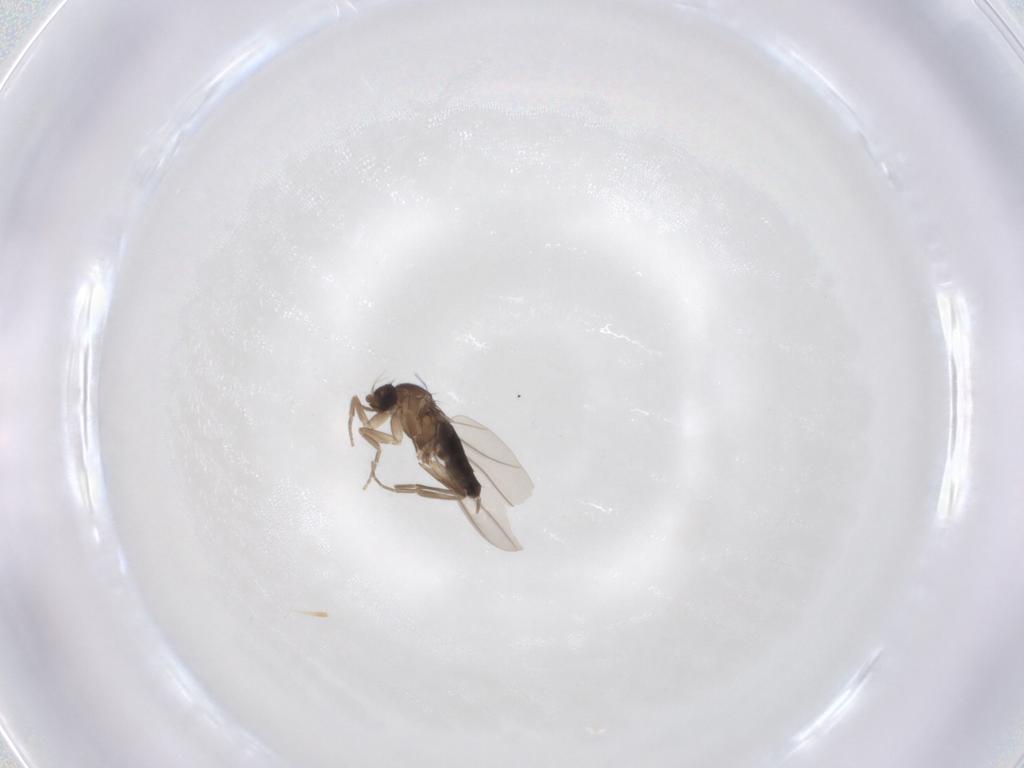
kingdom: Animalia
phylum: Arthropoda
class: Insecta
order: Diptera
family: Phoridae
